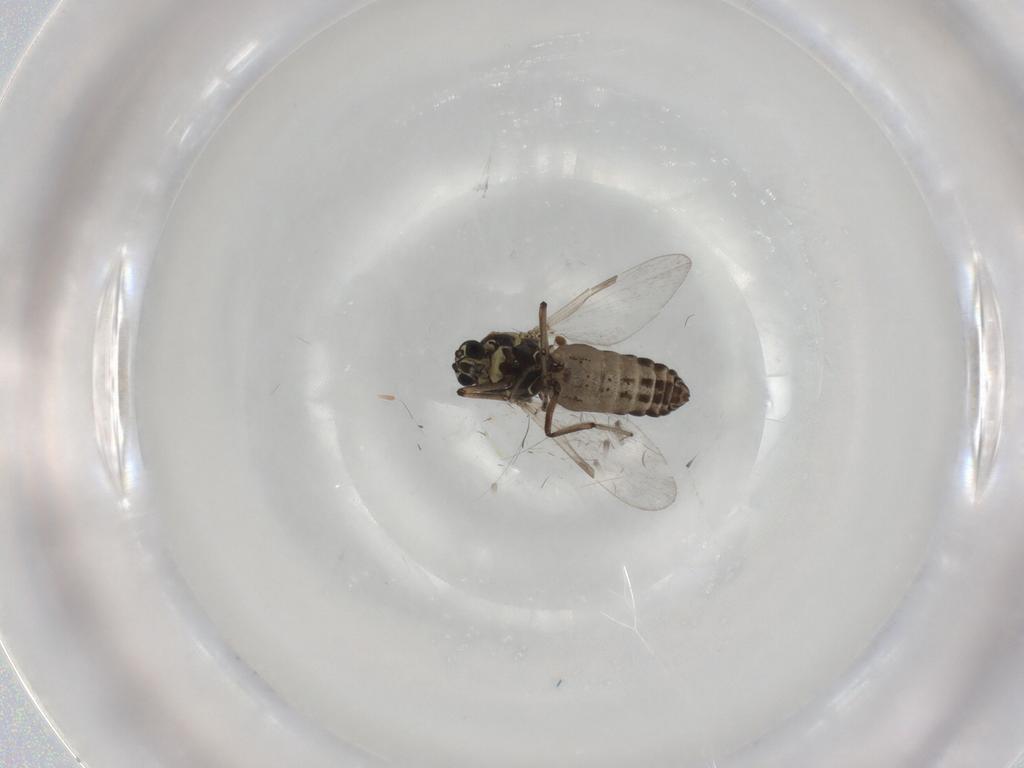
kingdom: Animalia
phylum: Arthropoda
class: Insecta
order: Diptera
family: Ceratopogonidae
